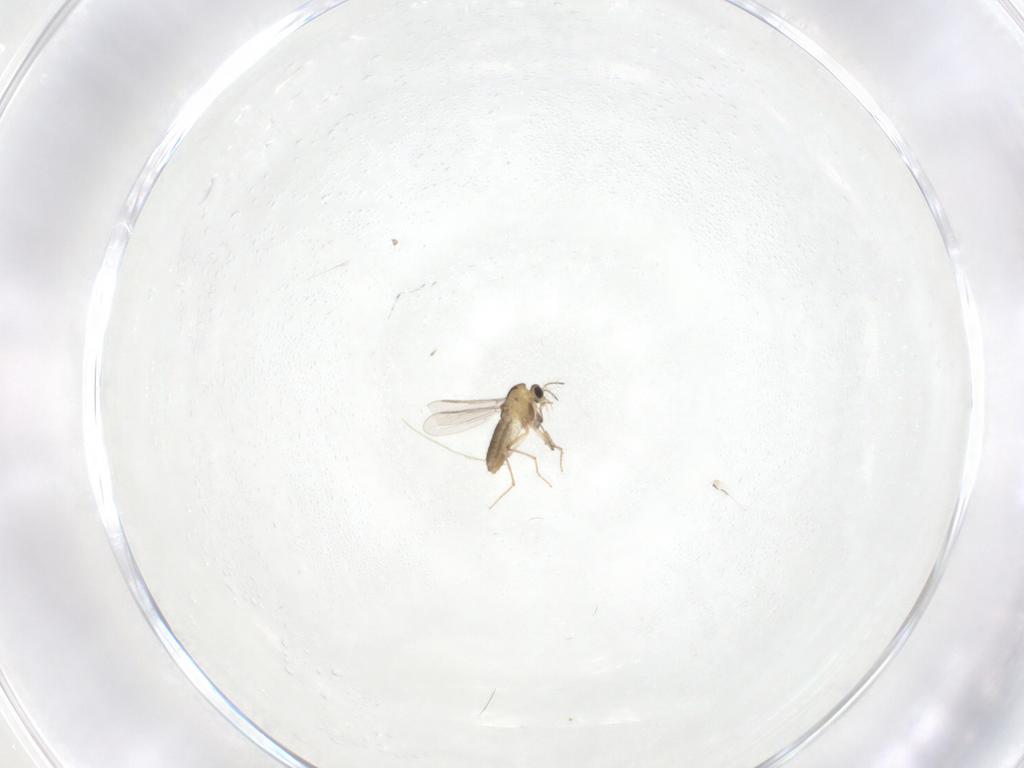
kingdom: Animalia
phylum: Arthropoda
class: Insecta
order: Diptera
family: Chironomidae
